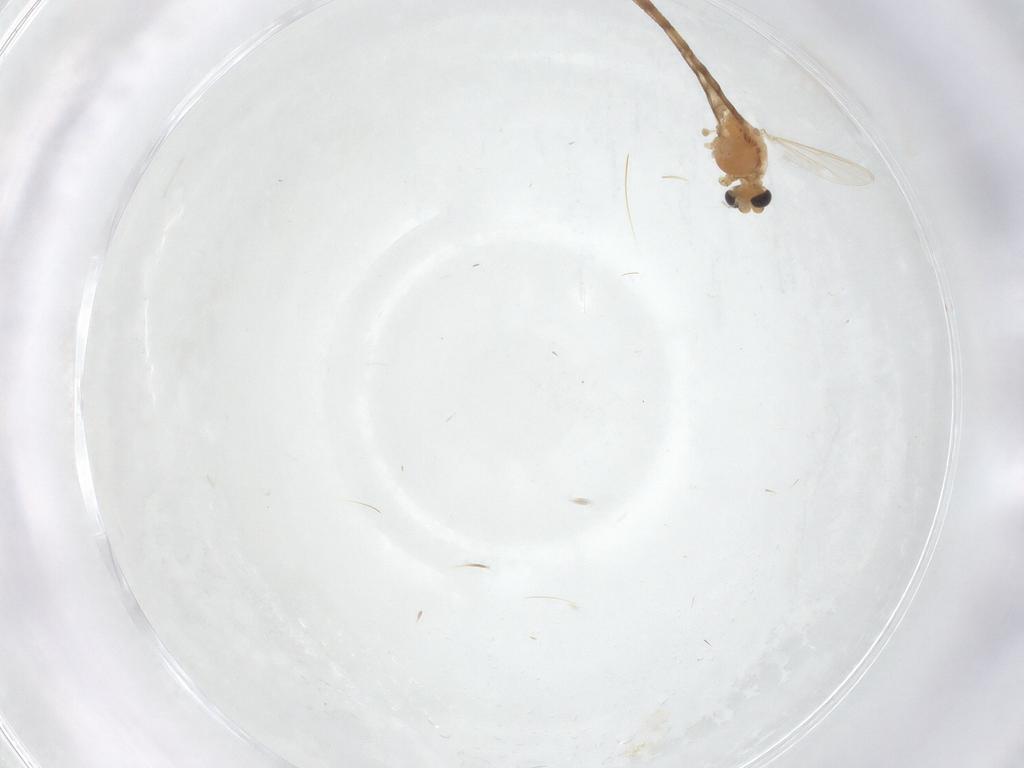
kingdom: Animalia
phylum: Arthropoda
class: Insecta
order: Diptera
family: Chironomidae
